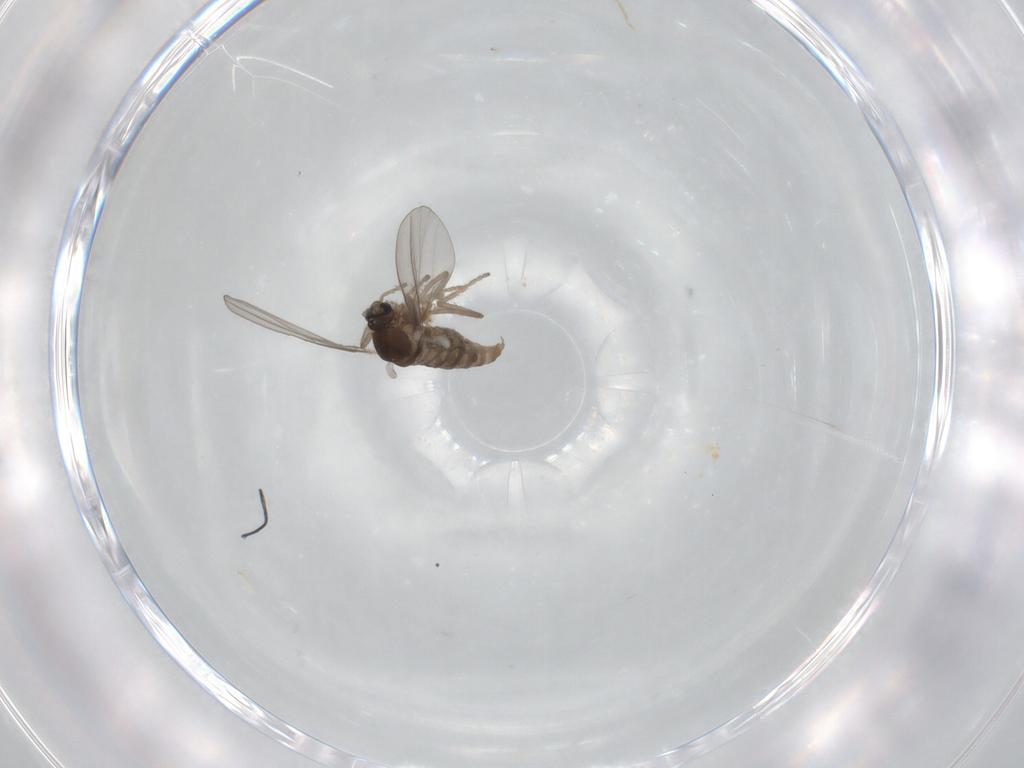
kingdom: Animalia
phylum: Arthropoda
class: Insecta
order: Diptera
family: Cecidomyiidae
